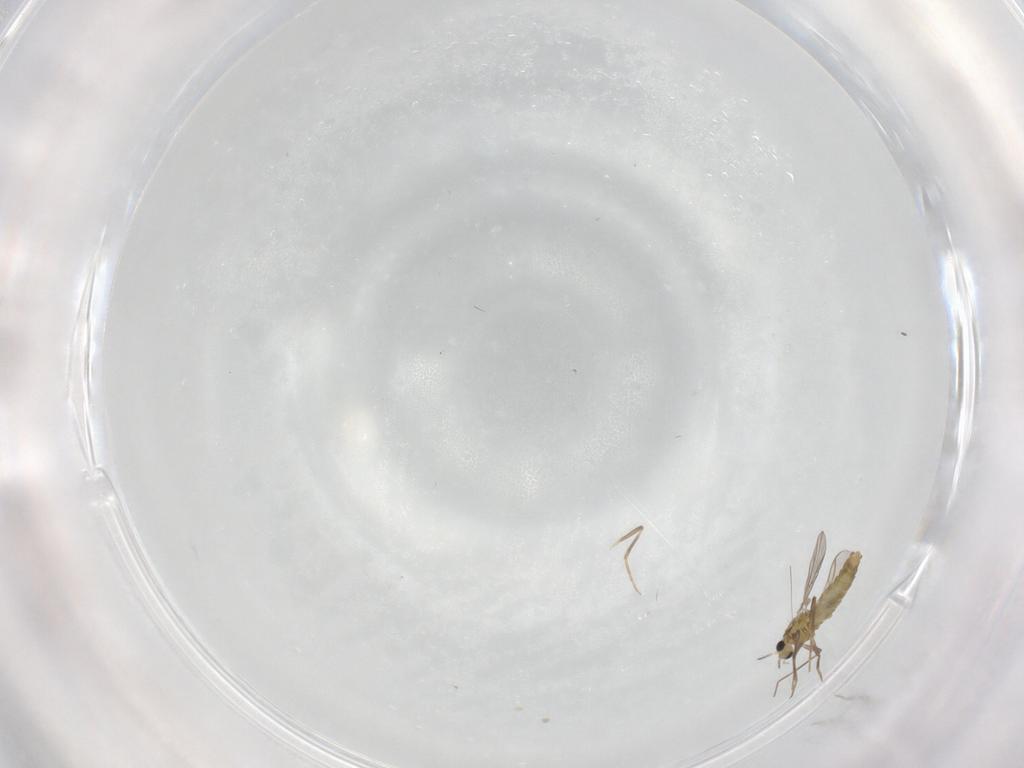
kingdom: Animalia
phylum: Arthropoda
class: Insecta
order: Diptera
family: Chironomidae
